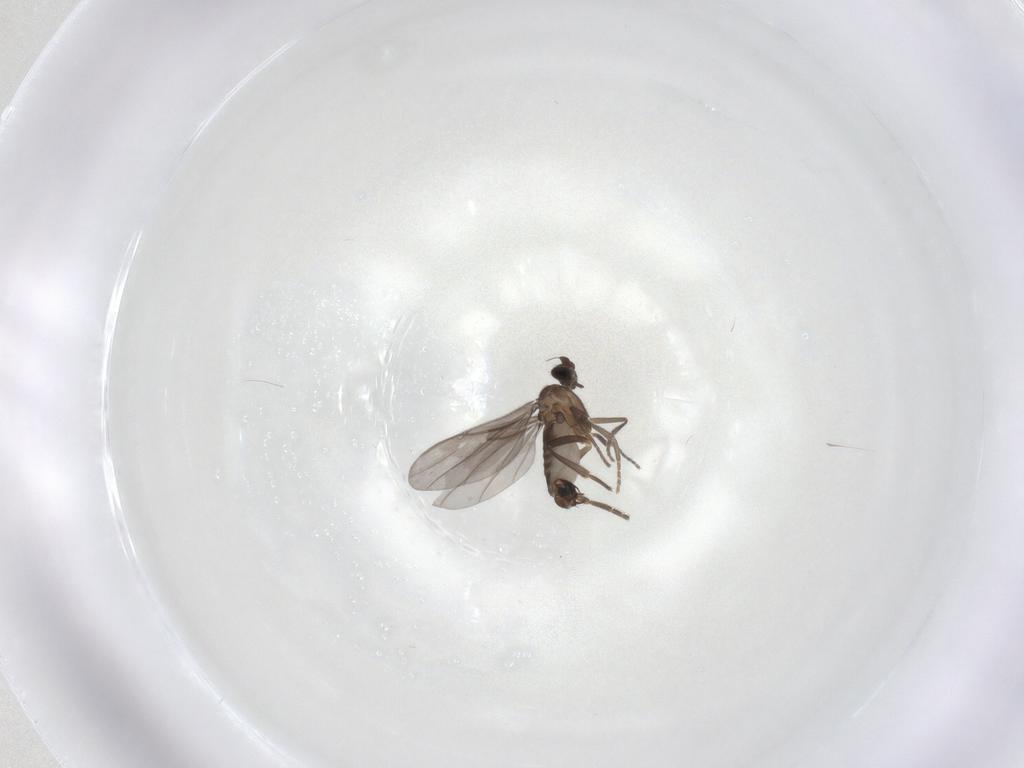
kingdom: Animalia
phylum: Arthropoda
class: Insecta
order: Diptera
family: Phoridae
